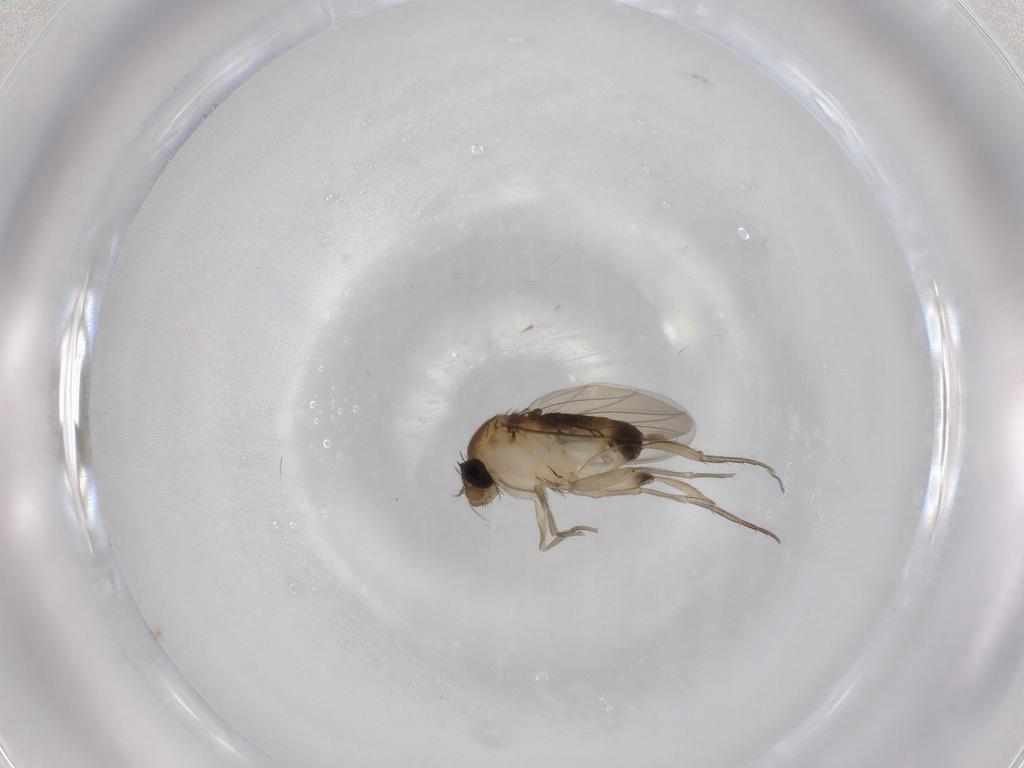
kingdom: Animalia
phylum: Arthropoda
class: Insecta
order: Diptera
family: Phoridae
